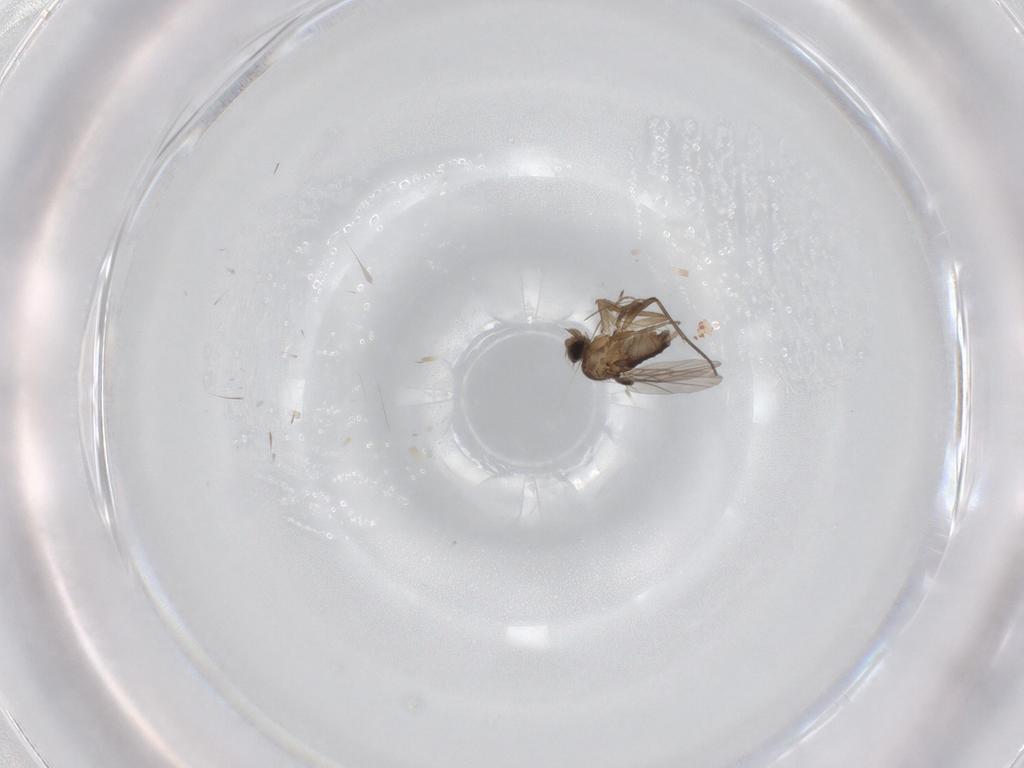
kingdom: Animalia
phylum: Arthropoda
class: Insecta
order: Diptera
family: Phoridae
